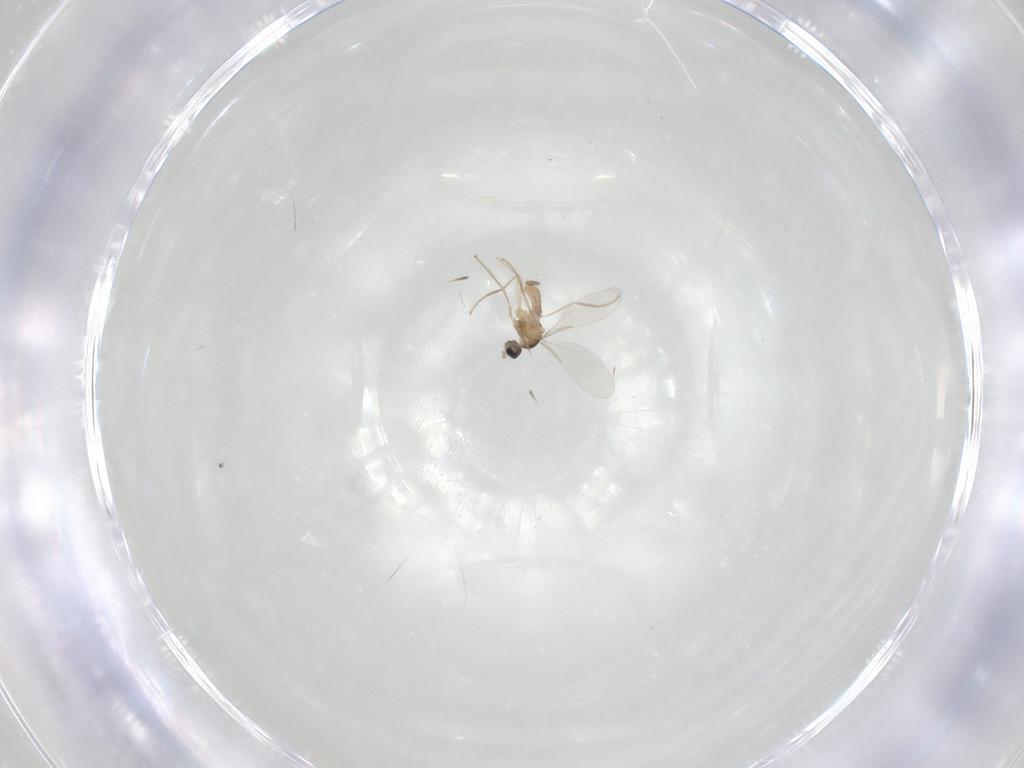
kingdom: Animalia
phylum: Arthropoda
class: Insecta
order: Diptera
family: Cecidomyiidae
